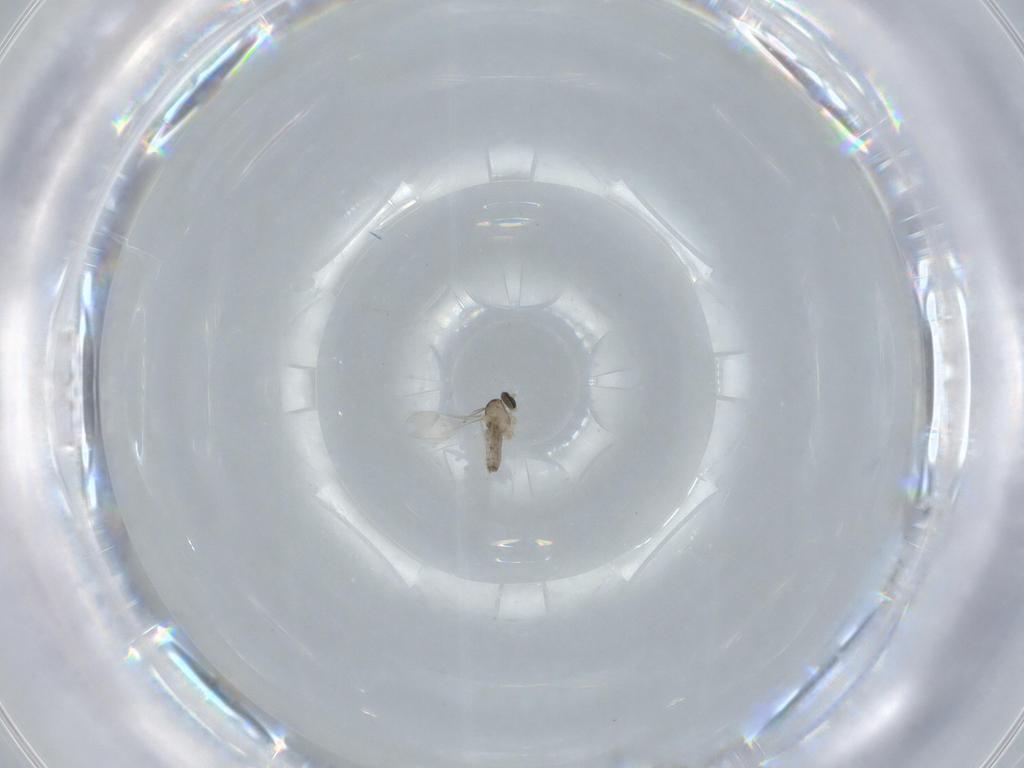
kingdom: Animalia
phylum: Arthropoda
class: Insecta
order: Diptera
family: Cecidomyiidae
